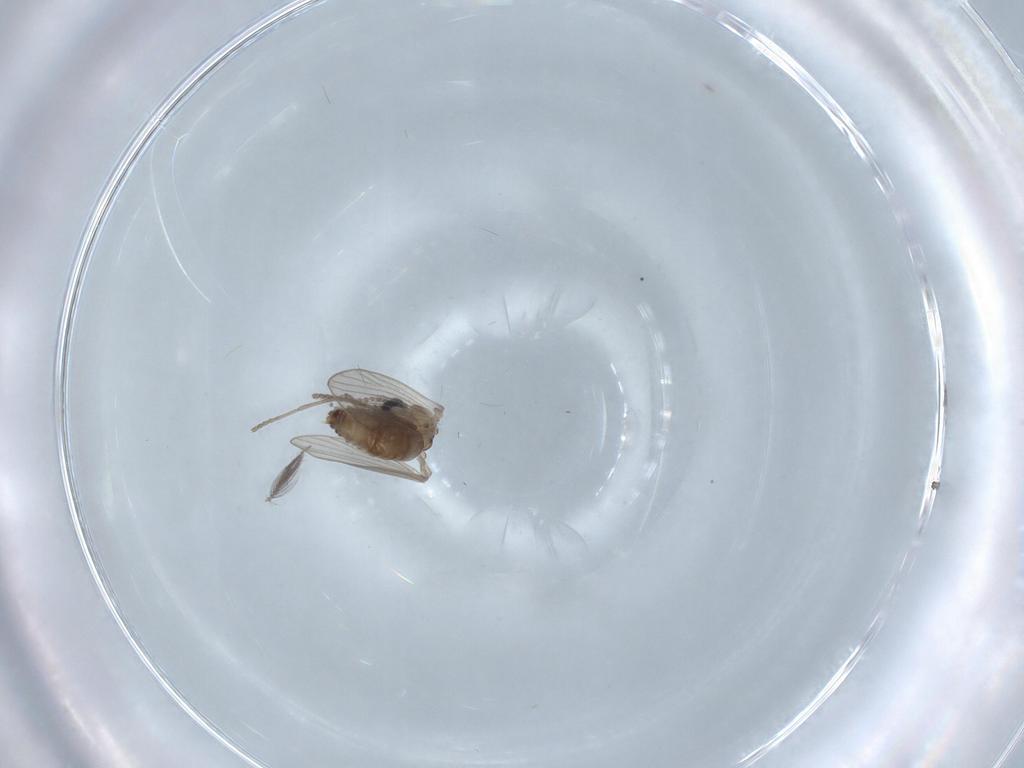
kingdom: Animalia
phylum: Arthropoda
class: Insecta
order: Diptera
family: Psychodidae
